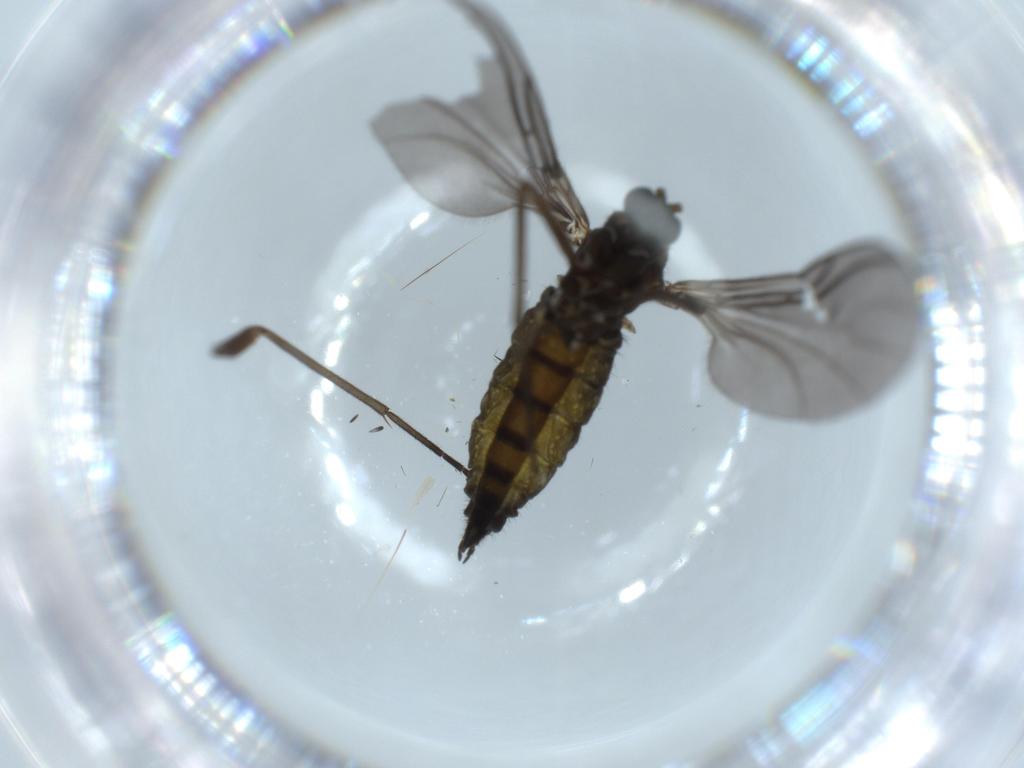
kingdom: Animalia
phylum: Arthropoda
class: Insecta
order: Diptera
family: Sciaridae
